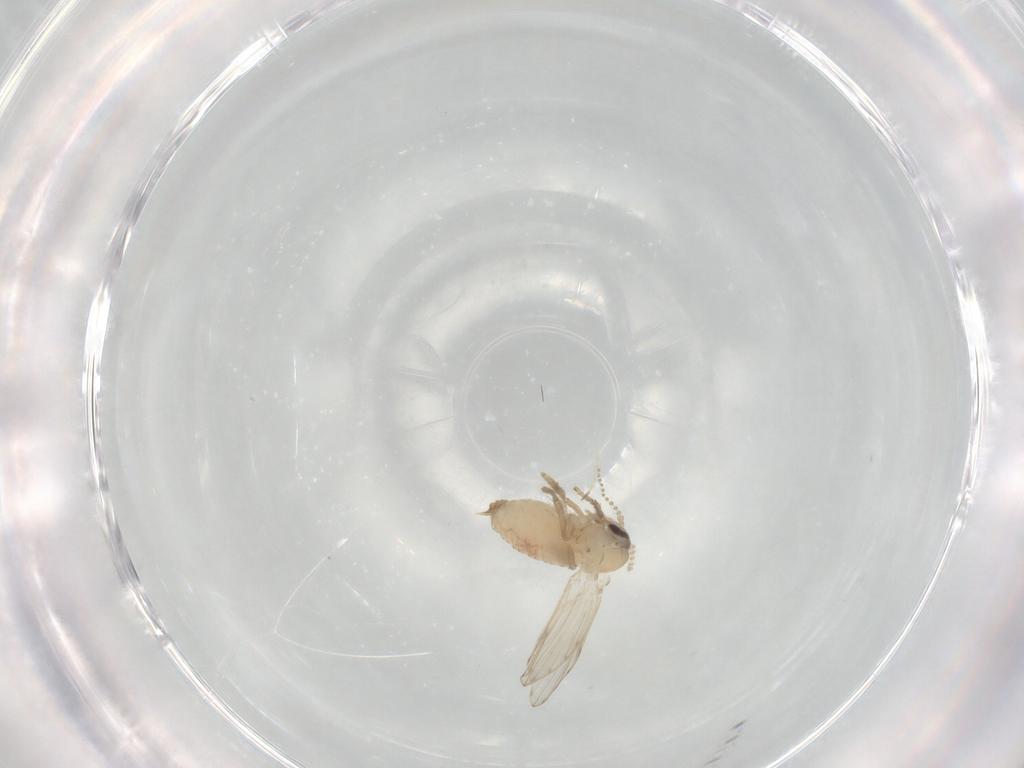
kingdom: Animalia
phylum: Arthropoda
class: Insecta
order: Diptera
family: Psychodidae
